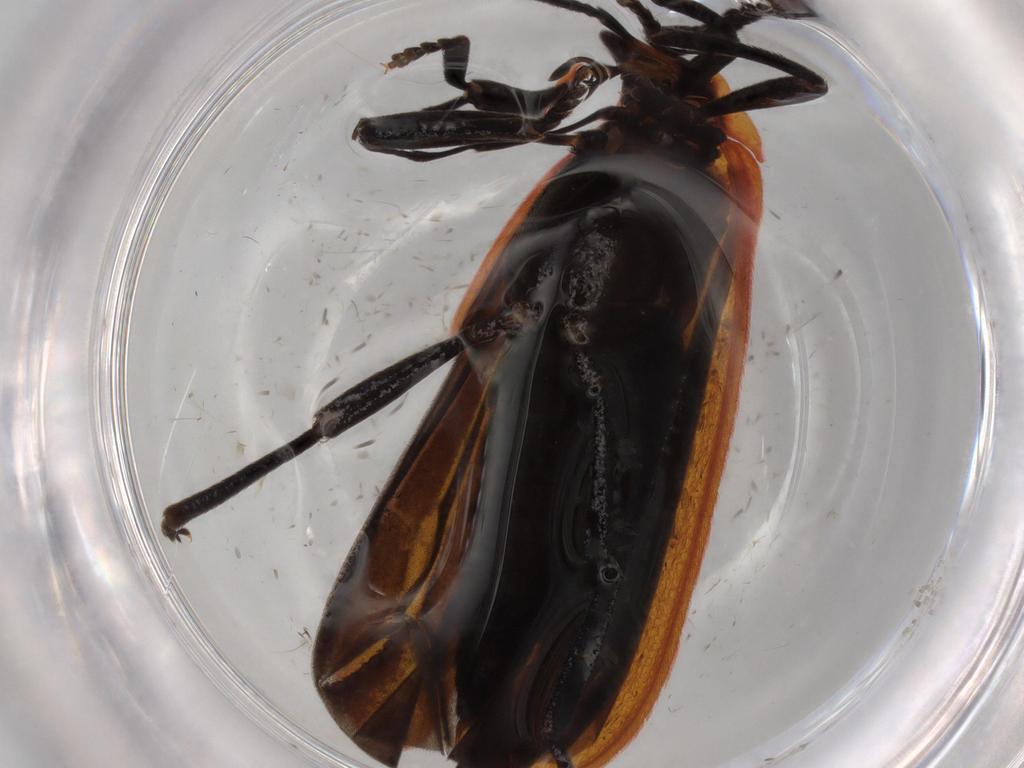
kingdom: Animalia
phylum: Arthropoda
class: Insecta
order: Coleoptera
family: Lycidae
